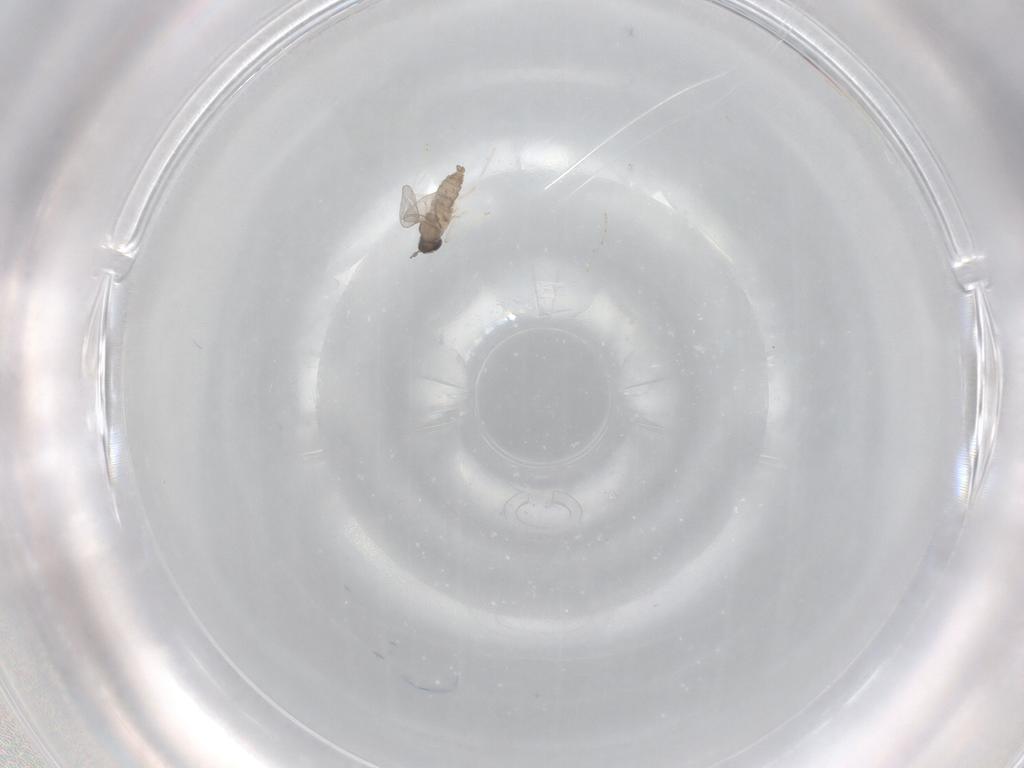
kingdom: Animalia
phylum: Arthropoda
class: Insecta
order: Diptera
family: Cecidomyiidae
